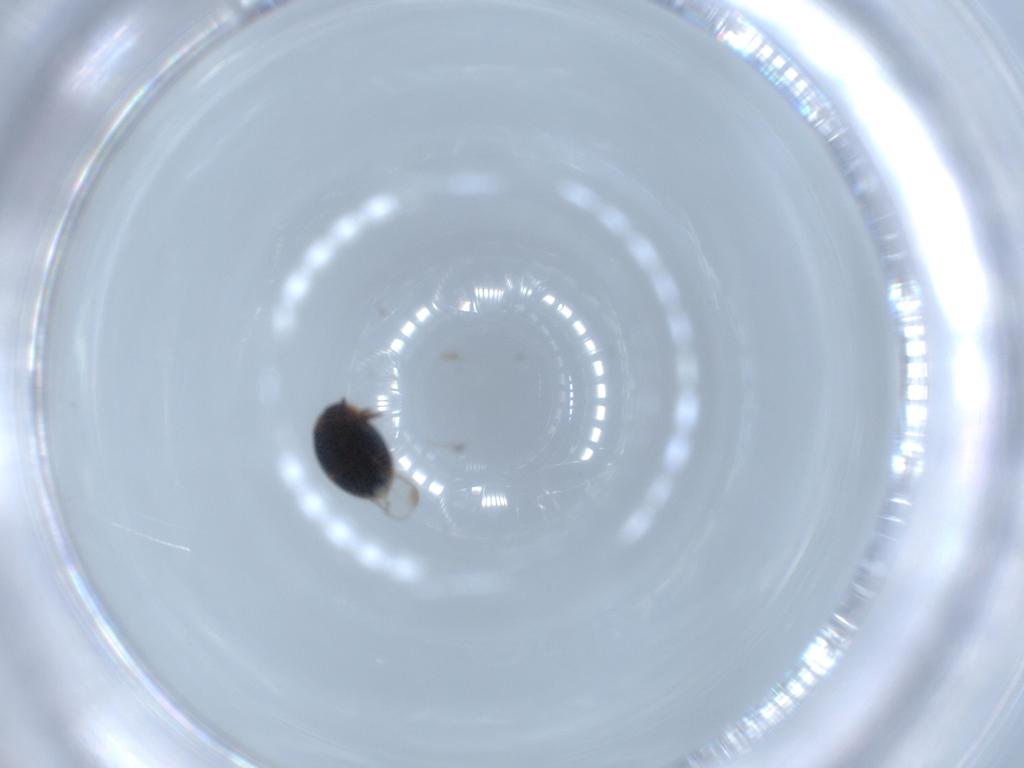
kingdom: Animalia
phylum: Arthropoda
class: Insecta
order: Coleoptera
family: Corylophidae
